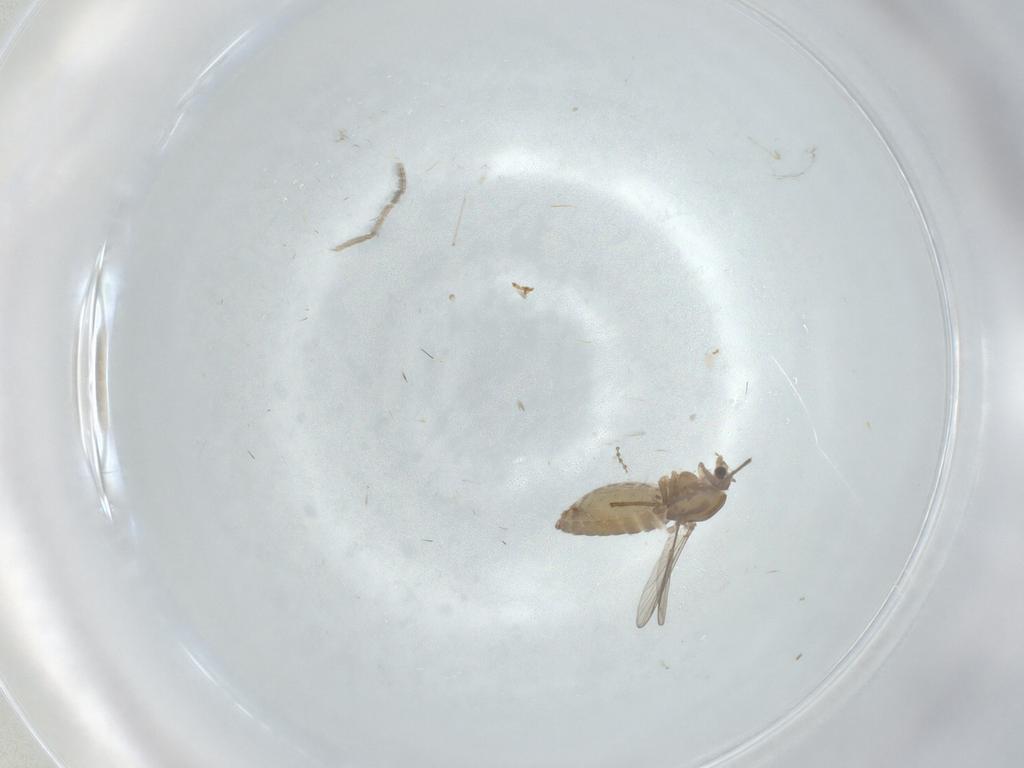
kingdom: Animalia
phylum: Arthropoda
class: Insecta
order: Diptera
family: Chironomidae
